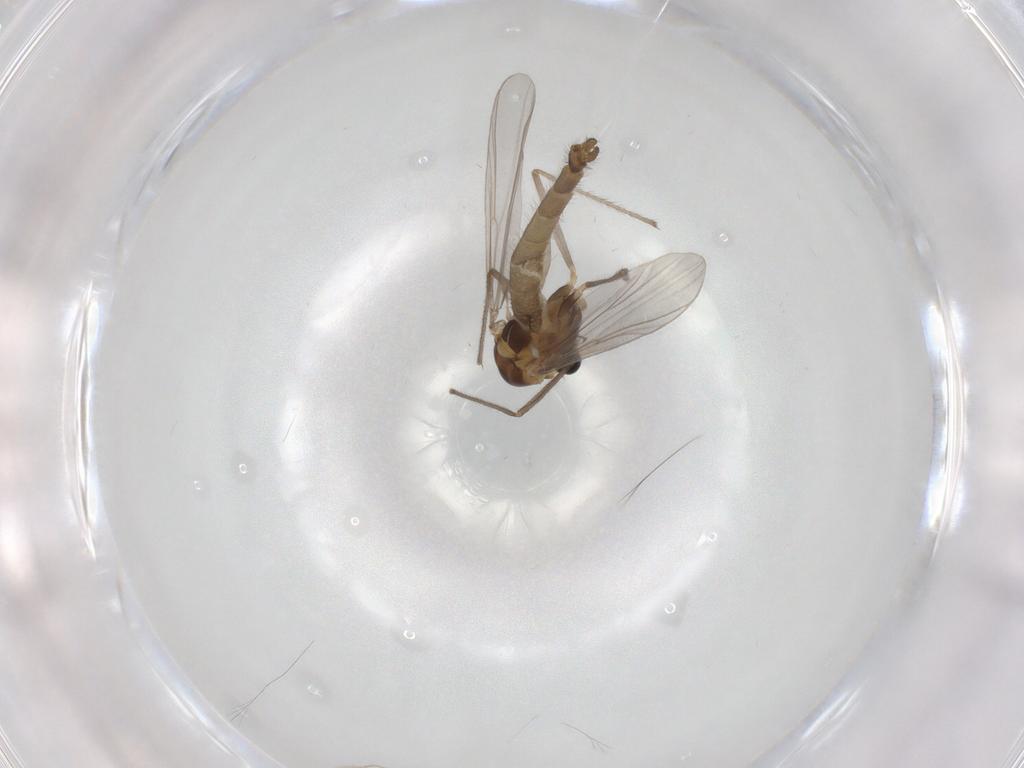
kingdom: Animalia
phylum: Arthropoda
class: Insecta
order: Diptera
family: Chironomidae
